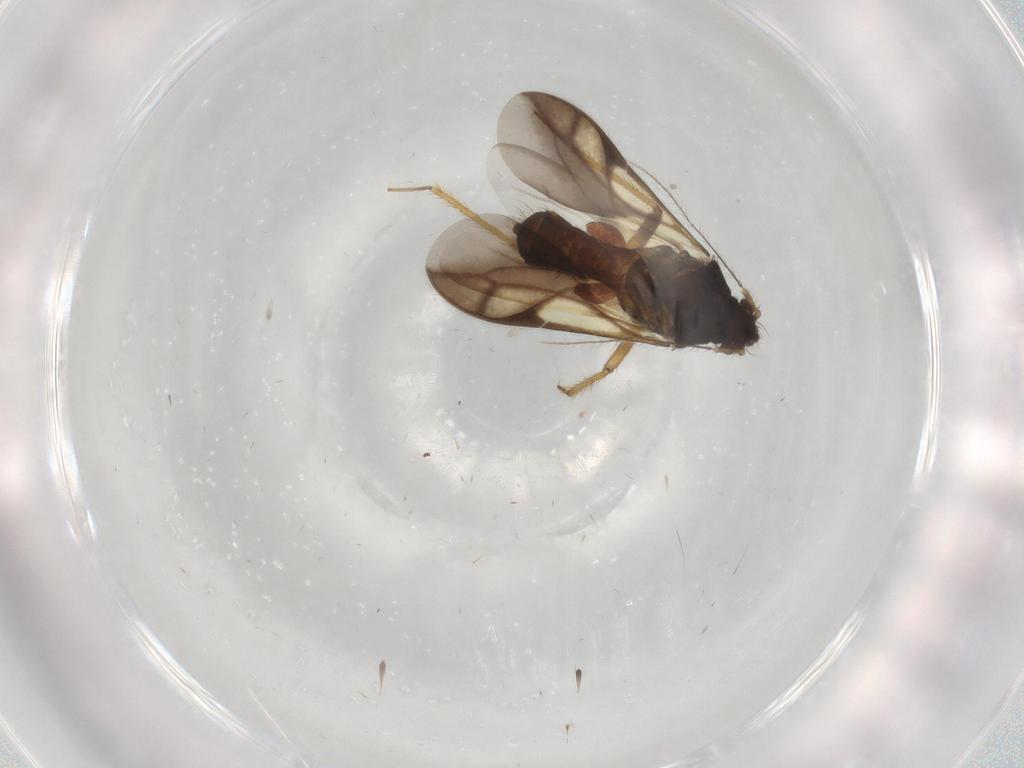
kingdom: Animalia
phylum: Arthropoda
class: Insecta
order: Hemiptera
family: Ceratocombidae
